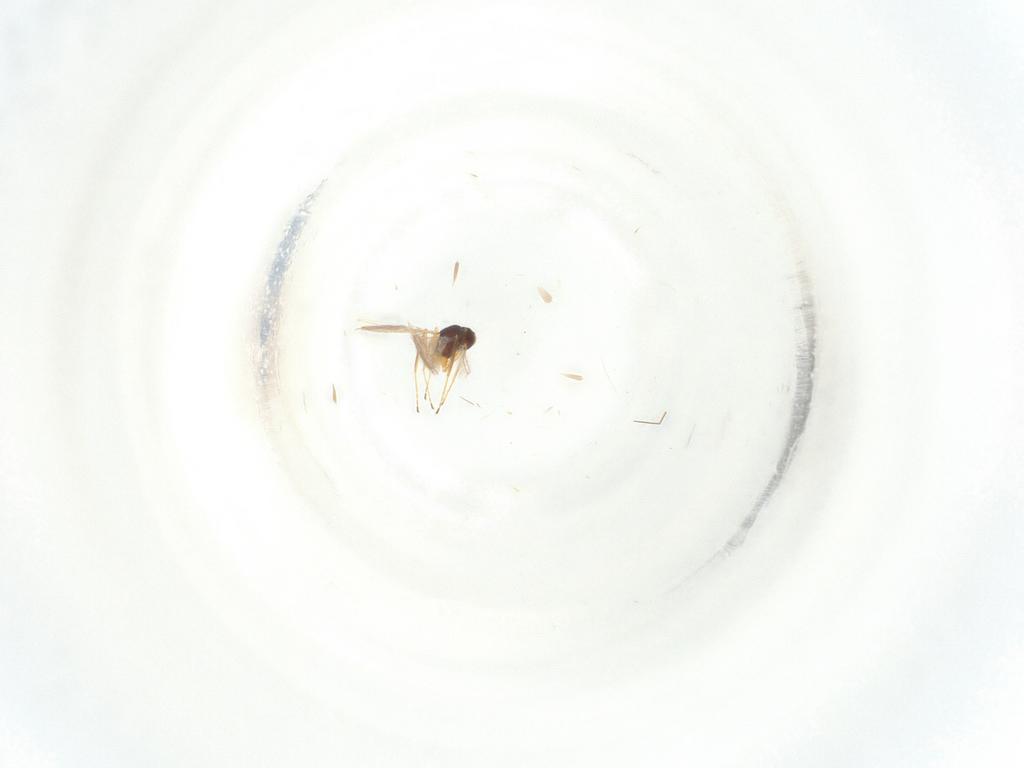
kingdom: Animalia
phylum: Arthropoda
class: Insecta
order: Hymenoptera
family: Mymaridae
